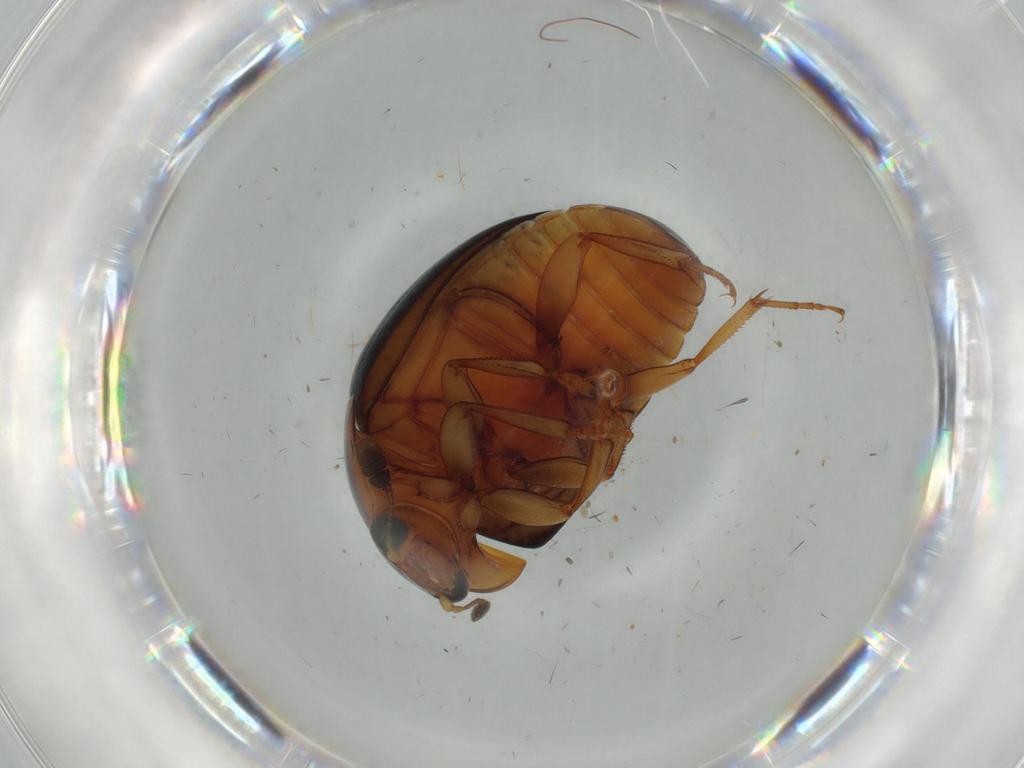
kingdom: Animalia
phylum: Arthropoda
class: Insecta
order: Coleoptera
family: Nitidulidae
